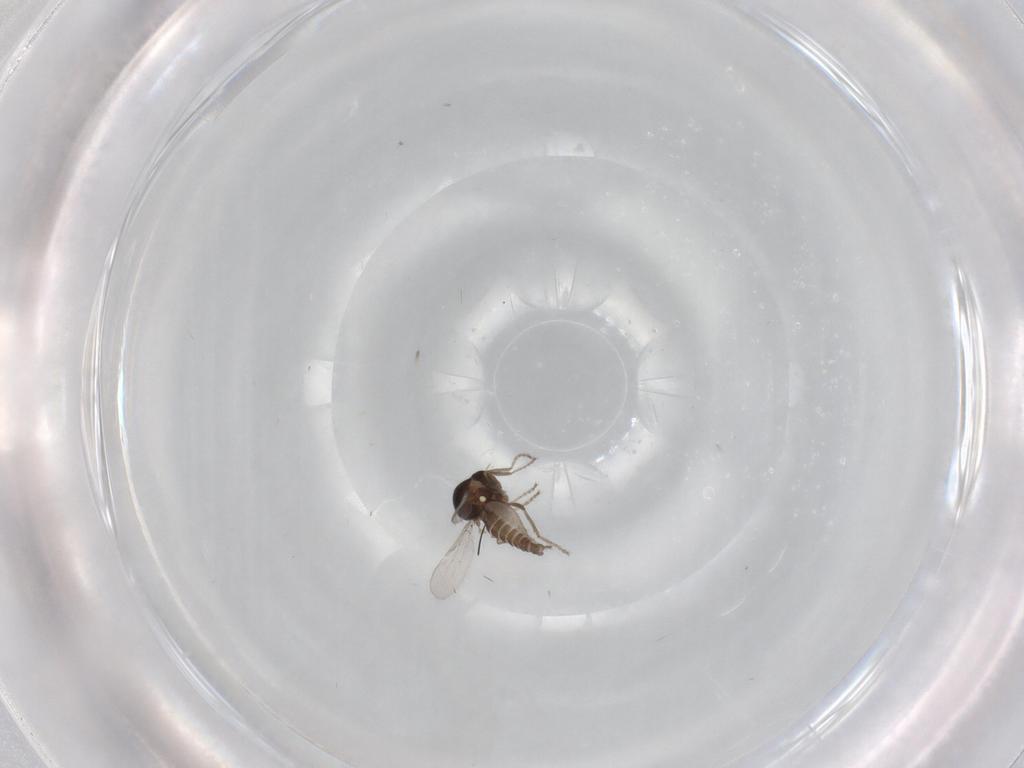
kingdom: Animalia
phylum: Arthropoda
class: Insecta
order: Diptera
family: Ceratopogonidae
